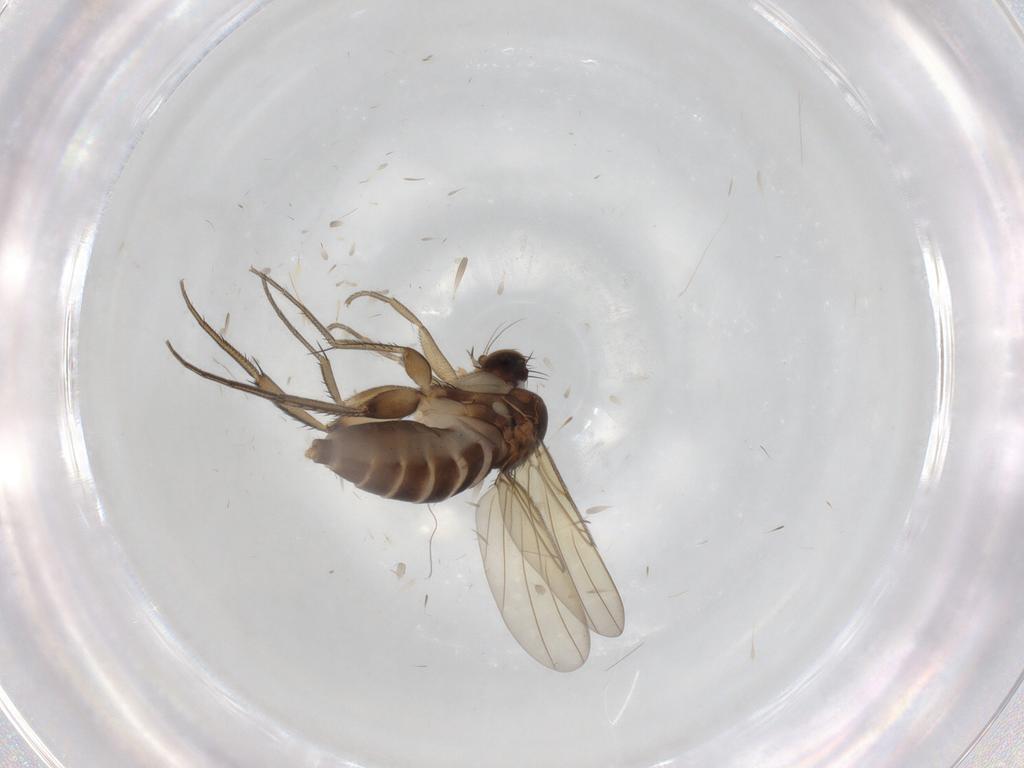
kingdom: Animalia
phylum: Arthropoda
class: Insecta
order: Diptera
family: Phoridae
